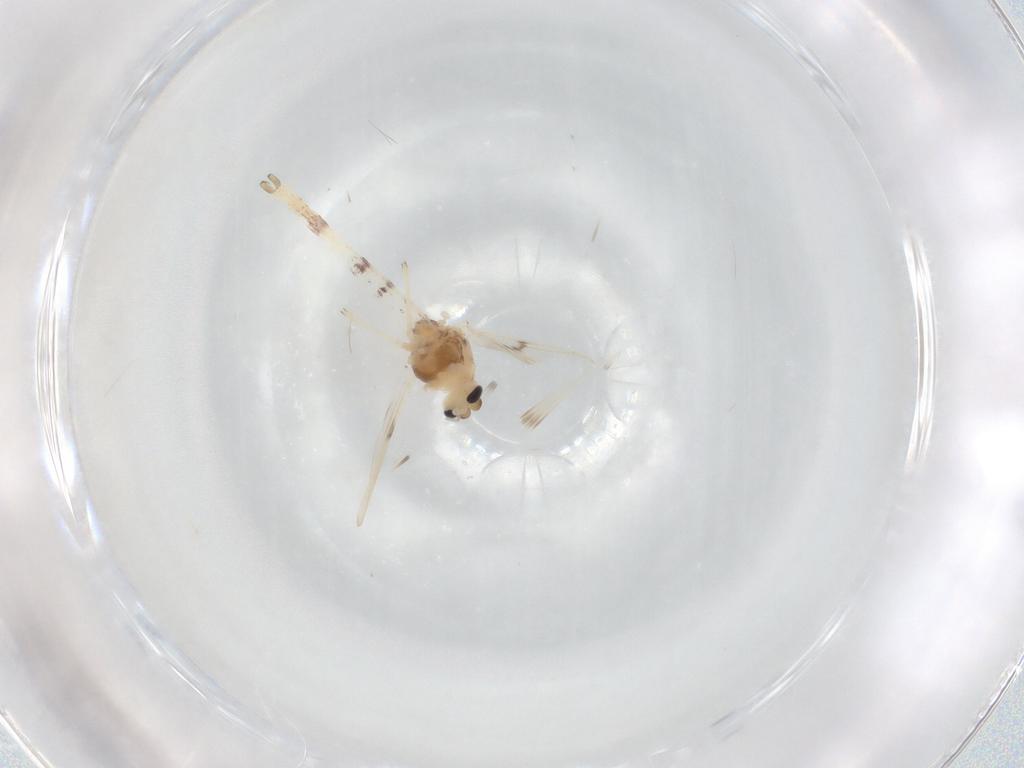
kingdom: Animalia
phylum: Arthropoda
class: Insecta
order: Diptera
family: Chironomidae
